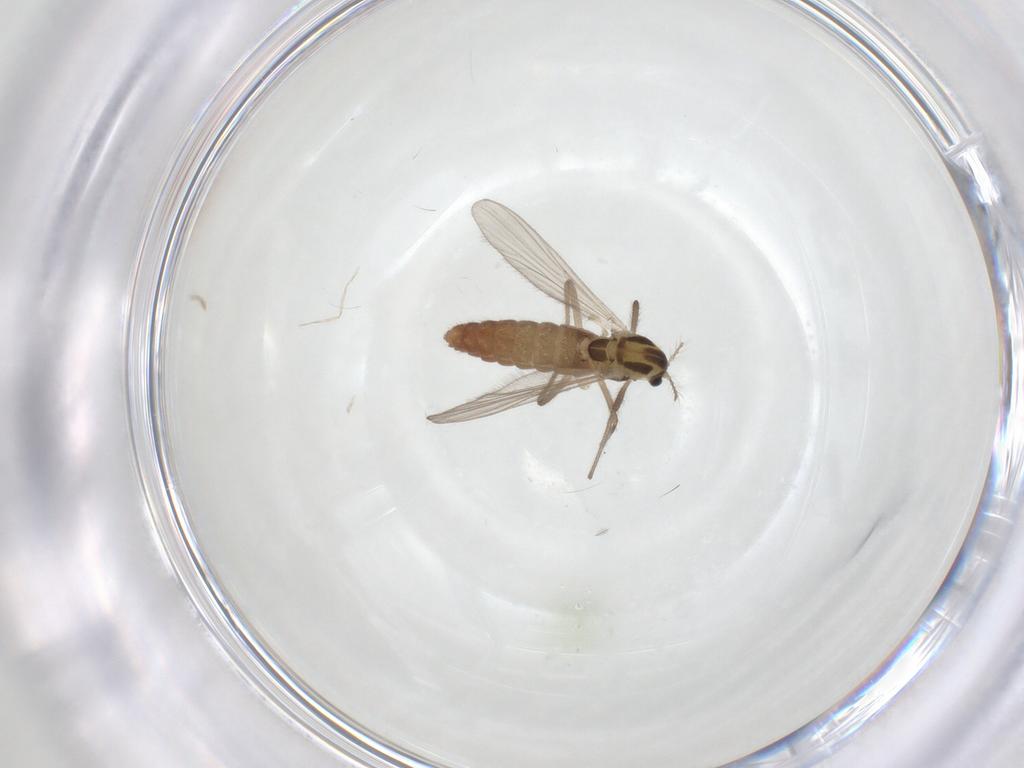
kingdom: Animalia
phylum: Arthropoda
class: Insecta
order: Diptera
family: Chironomidae
